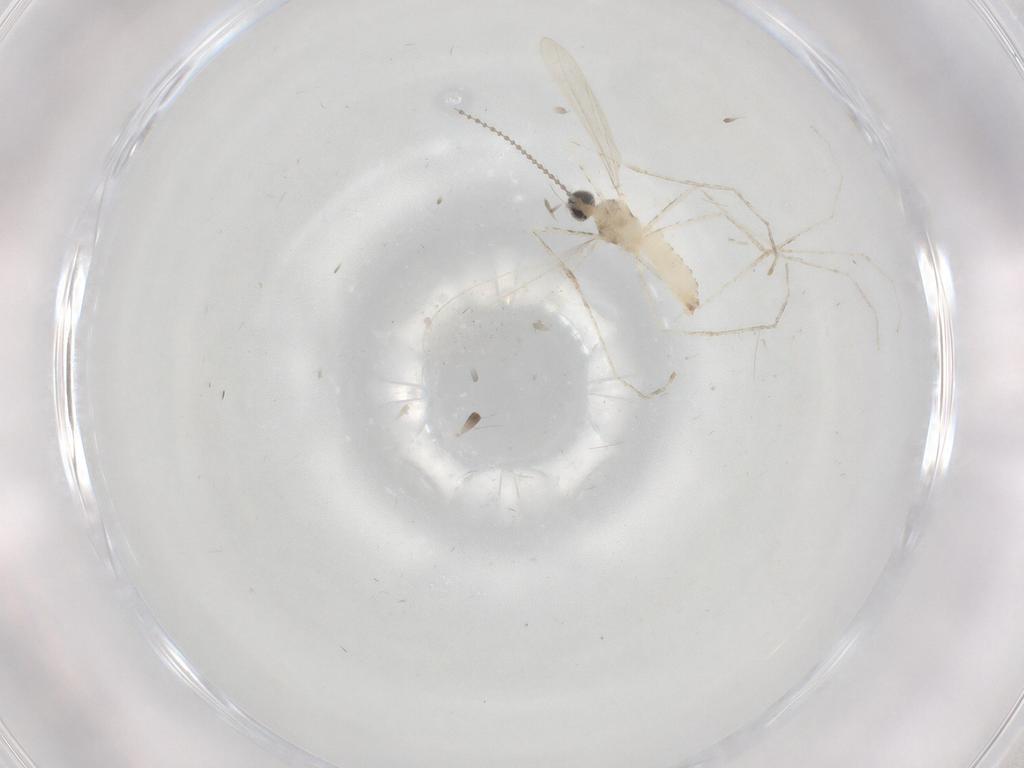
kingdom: Animalia
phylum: Arthropoda
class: Insecta
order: Diptera
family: Cecidomyiidae
